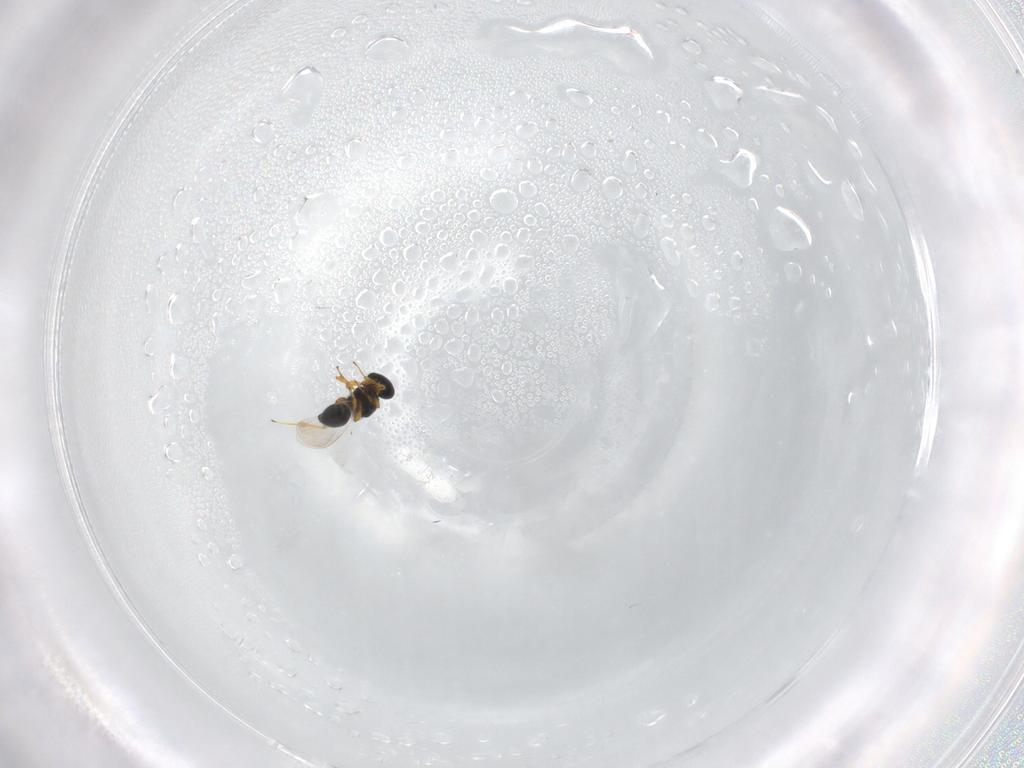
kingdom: Animalia
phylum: Arthropoda
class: Insecta
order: Hymenoptera
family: Platygastridae
